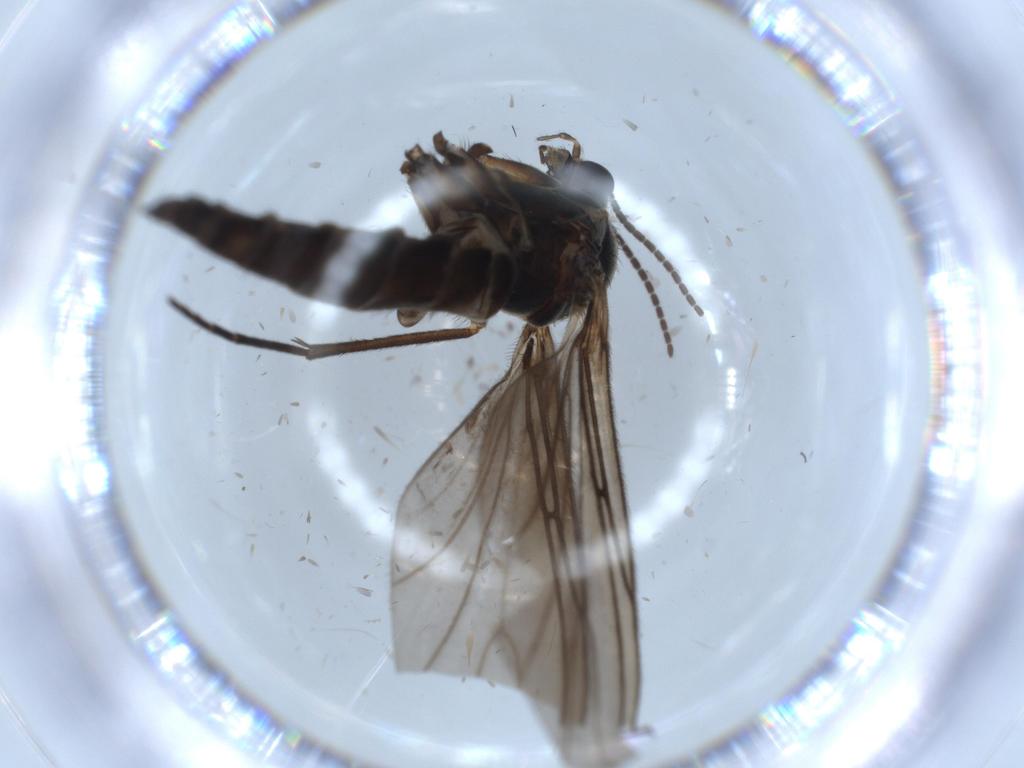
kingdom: Animalia
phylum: Arthropoda
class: Insecta
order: Diptera
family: Sciaridae
